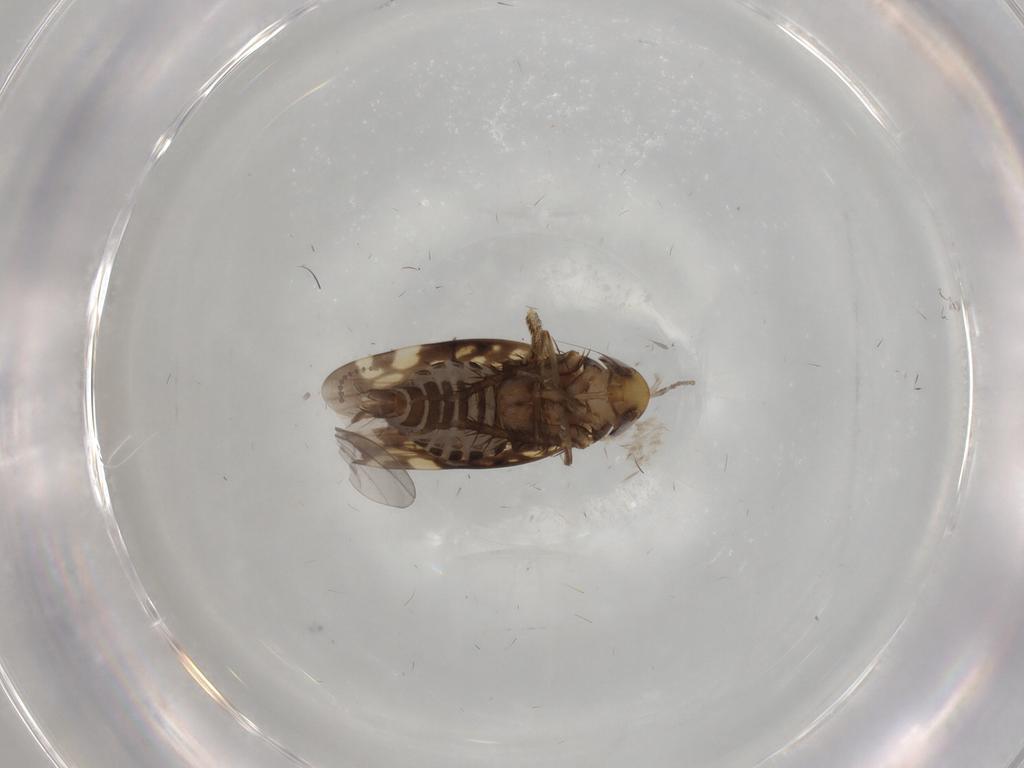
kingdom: Animalia
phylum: Arthropoda
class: Insecta
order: Hemiptera
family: Cicadellidae
